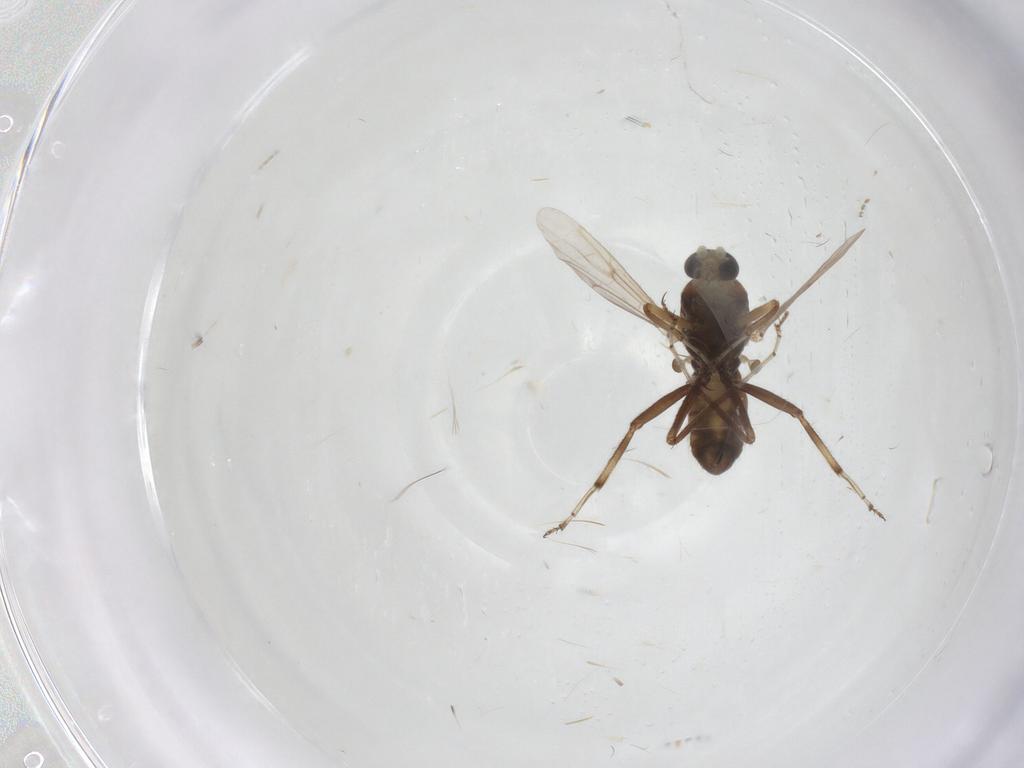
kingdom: Animalia
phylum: Arthropoda
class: Insecta
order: Diptera
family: Ceratopogonidae
